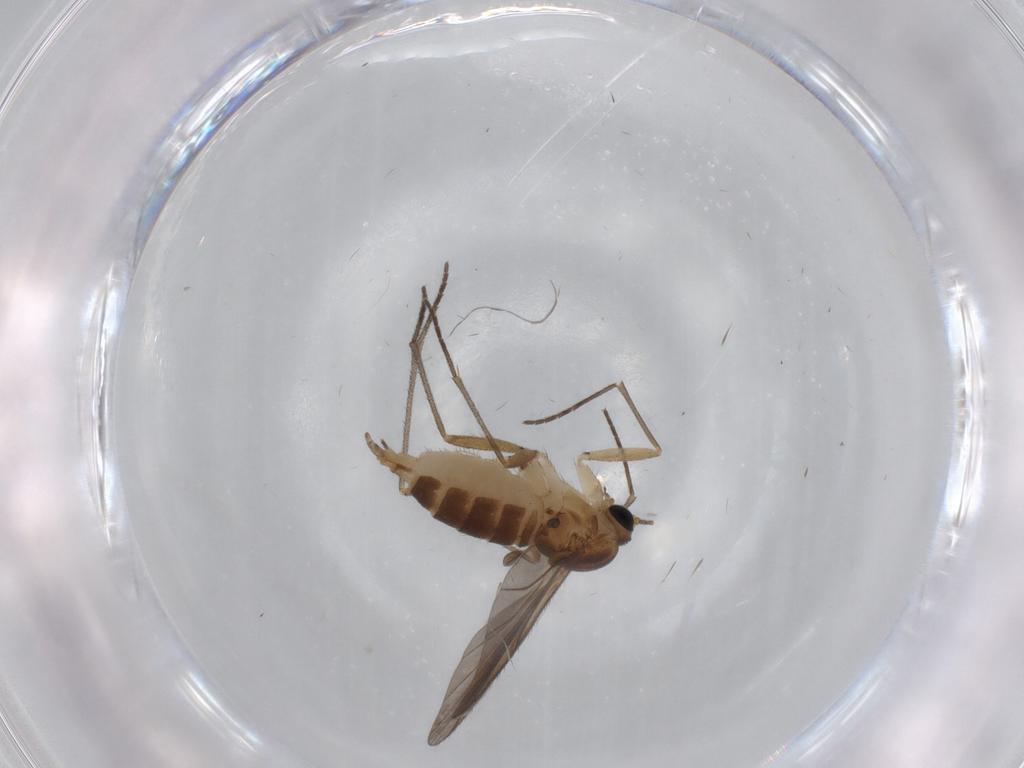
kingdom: Animalia
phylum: Arthropoda
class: Insecta
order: Diptera
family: Sciaridae
